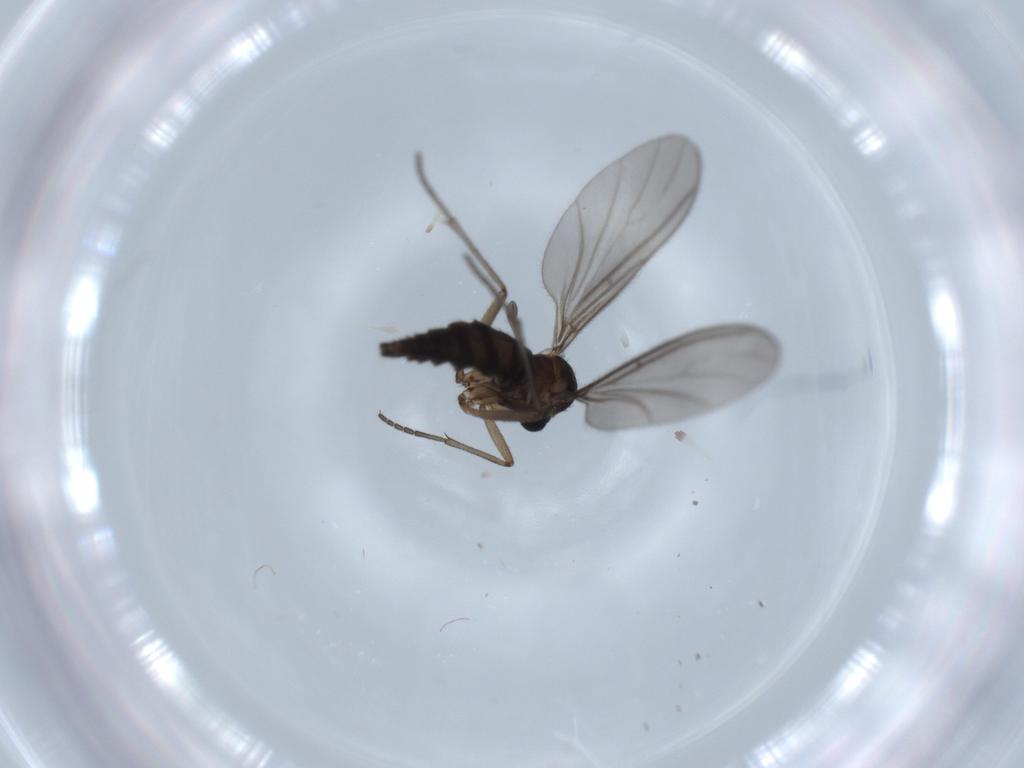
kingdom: Animalia
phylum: Arthropoda
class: Insecta
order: Diptera
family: Sciaridae
